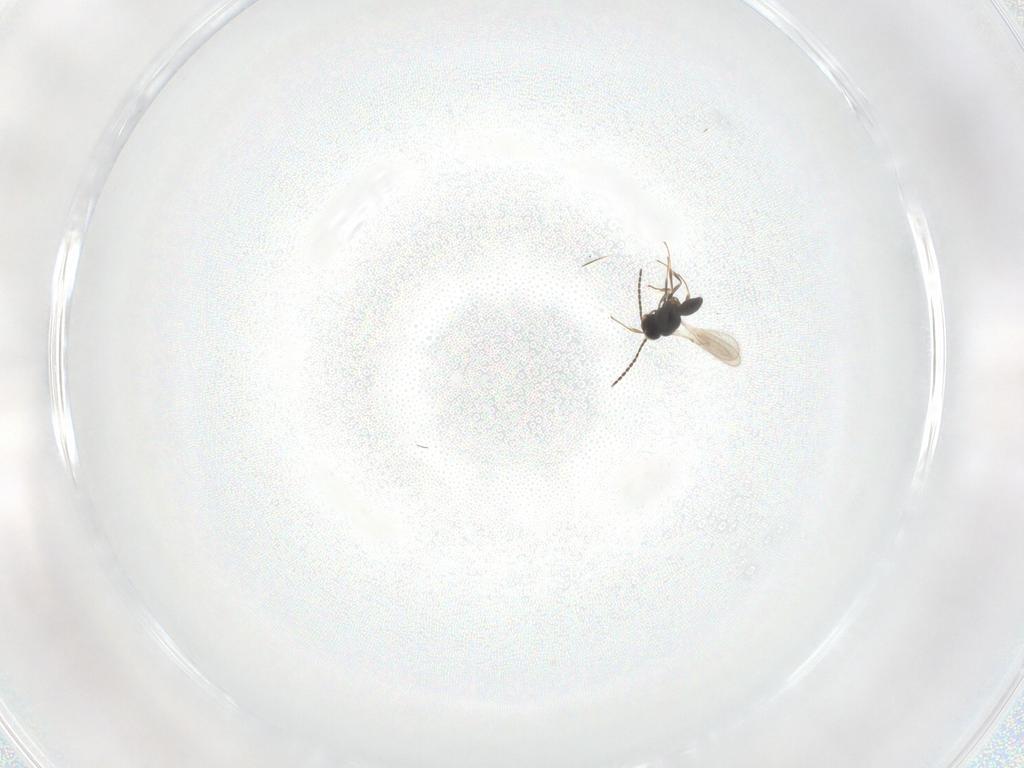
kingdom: Animalia
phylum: Arthropoda
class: Insecta
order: Hymenoptera
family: Scelionidae
